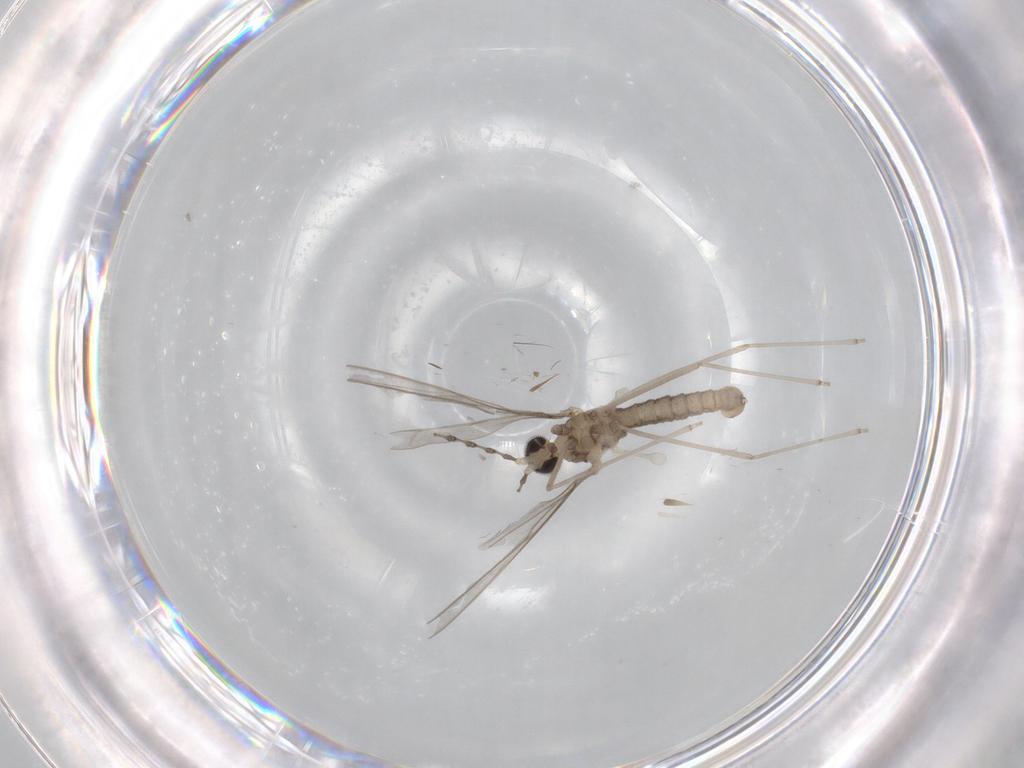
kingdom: Animalia
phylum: Arthropoda
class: Insecta
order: Diptera
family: Cecidomyiidae
